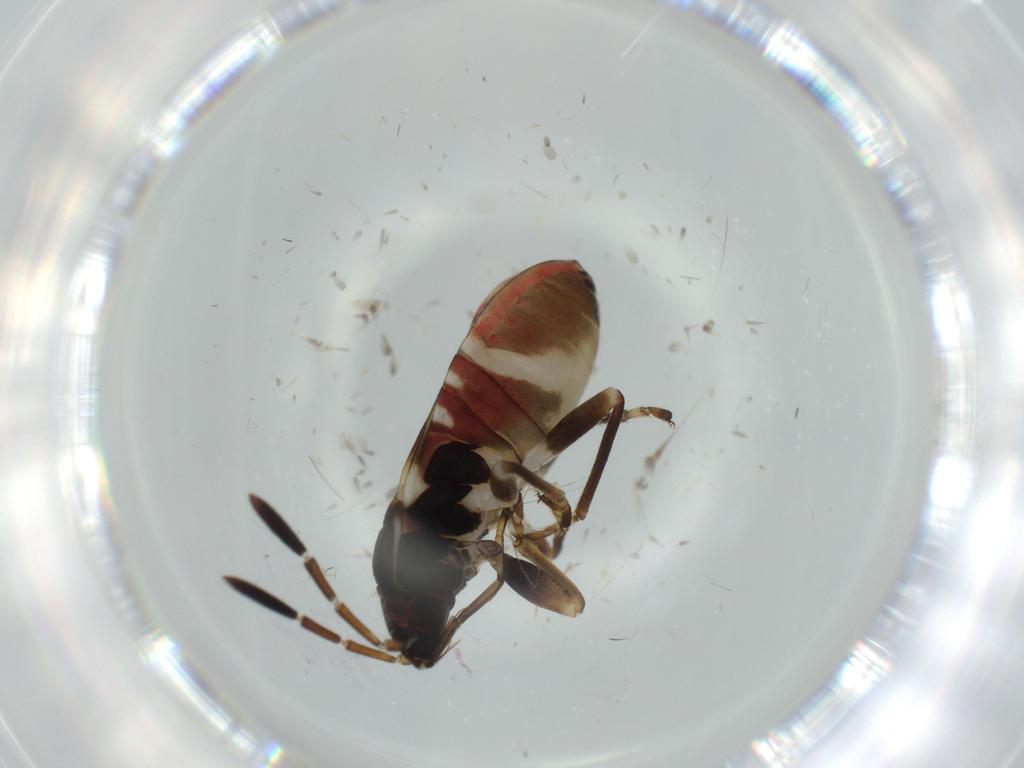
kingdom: Animalia
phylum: Arthropoda
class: Insecta
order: Hemiptera
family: Rhyparochromidae
